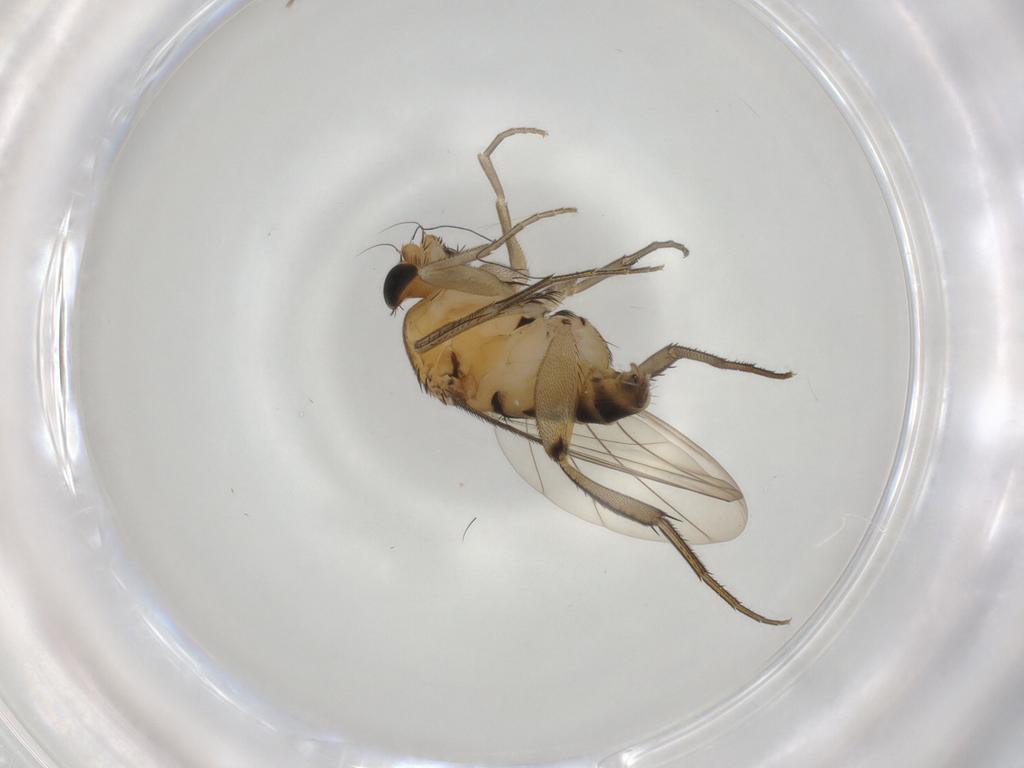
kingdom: Animalia
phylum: Arthropoda
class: Insecta
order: Diptera
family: Phoridae
